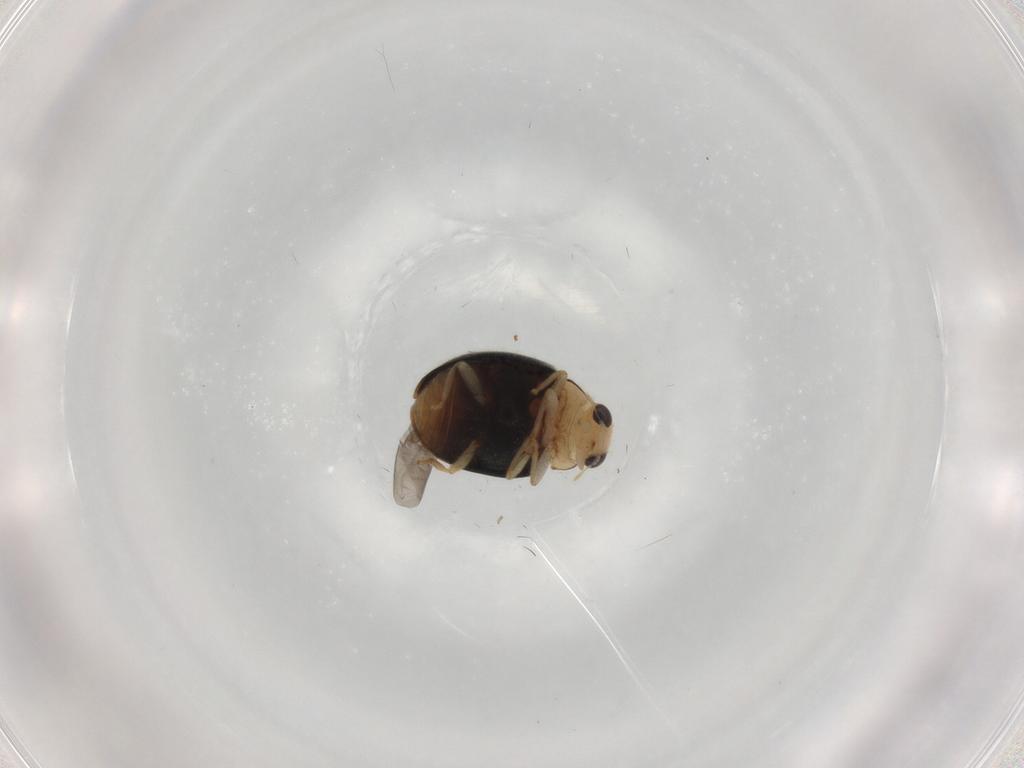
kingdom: Animalia
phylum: Arthropoda
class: Insecta
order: Coleoptera
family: Coccinellidae
